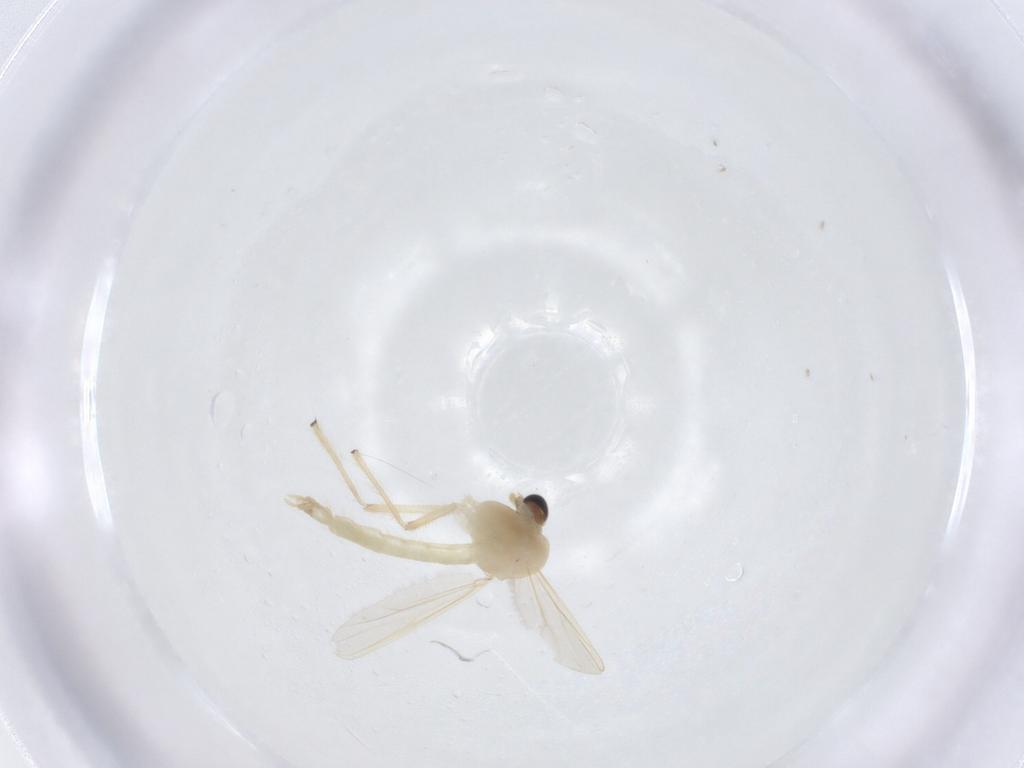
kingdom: Animalia
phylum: Arthropoda
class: Insecta
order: Diptera
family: Chironomidae
